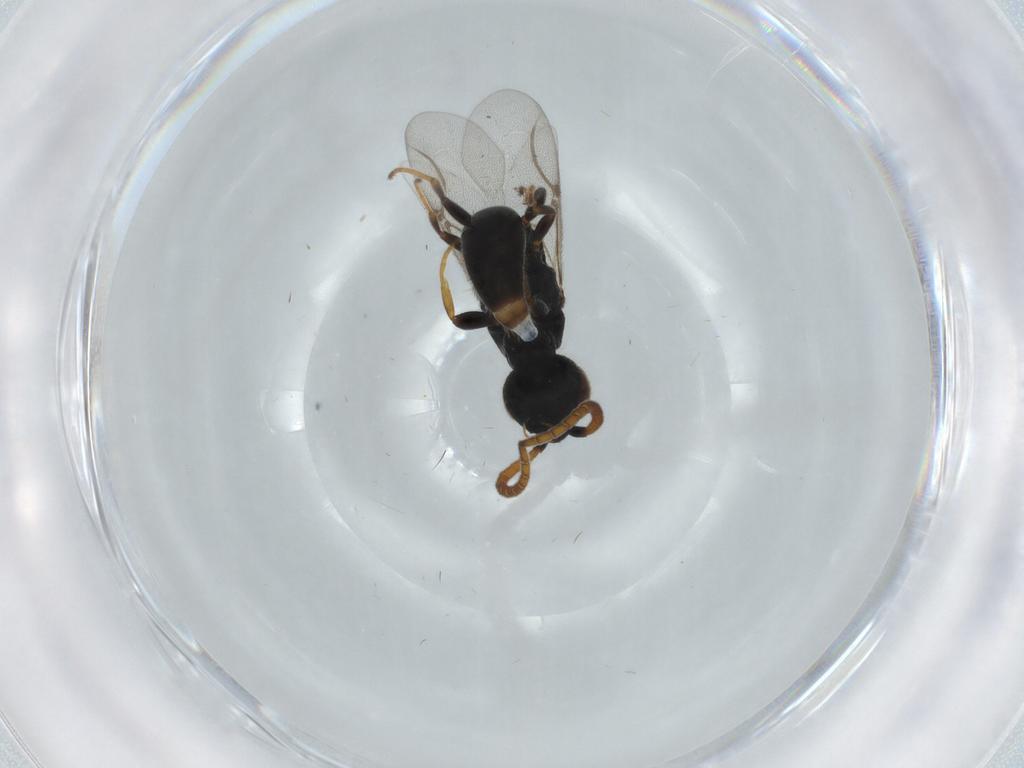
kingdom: Animalia
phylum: Arthropoda
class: Insecta
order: Hymenoptera
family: Bethylidae
